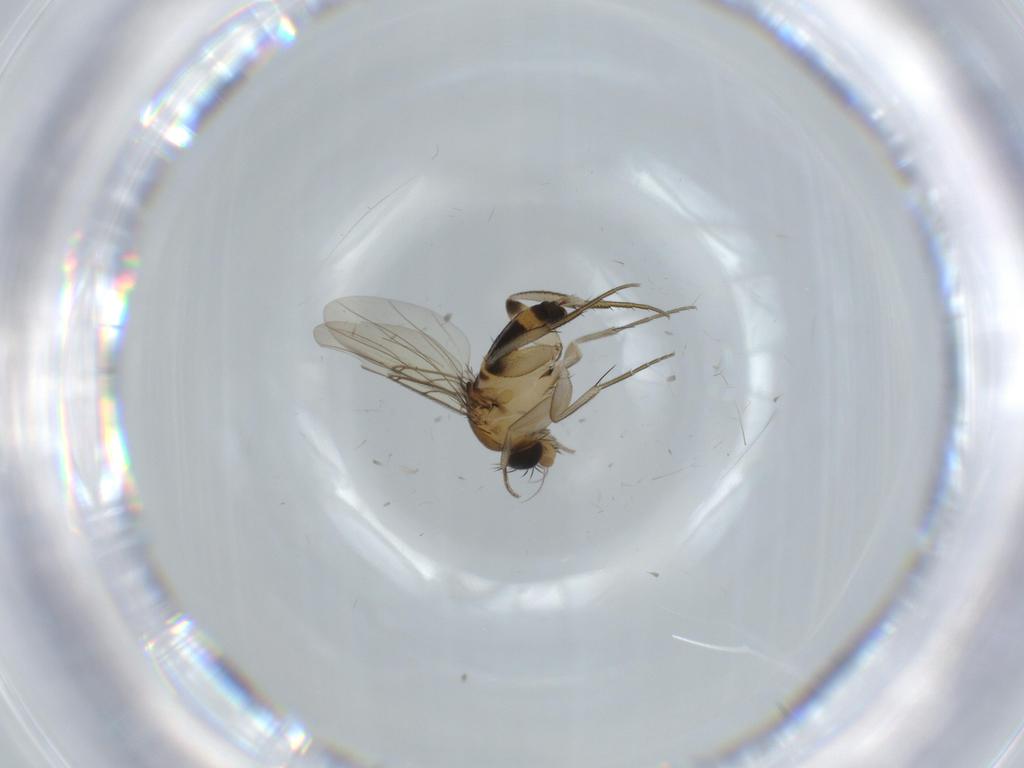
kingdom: Animalia
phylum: Arthropoda
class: Insecta
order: Diptera
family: Phoridae
